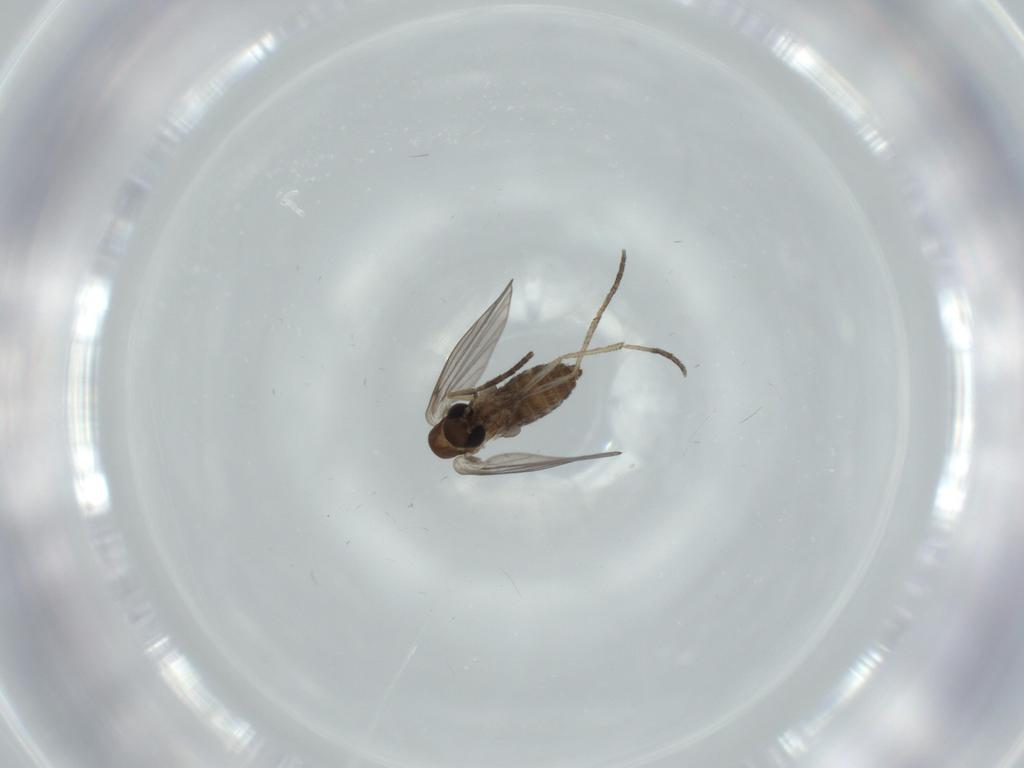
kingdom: Animalia
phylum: Arthropoda
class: Insecta
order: Diptera
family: Psychodidae
